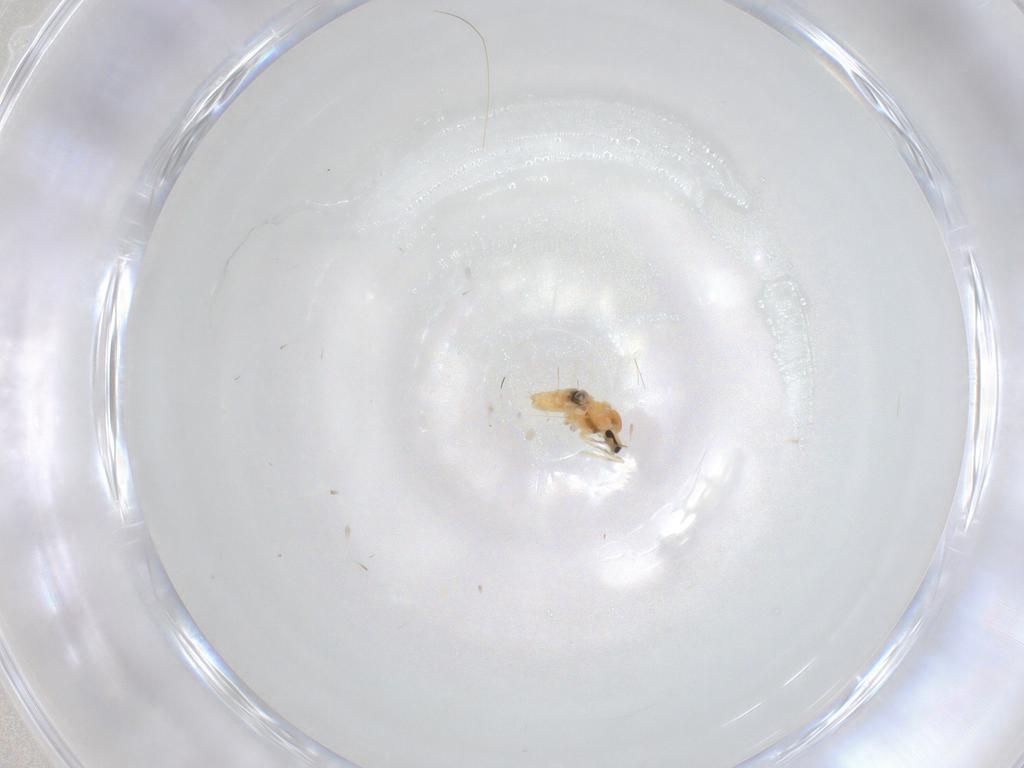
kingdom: Animalia
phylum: Arthropoda
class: Insecta
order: Diptera
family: Cecidomyiidae
